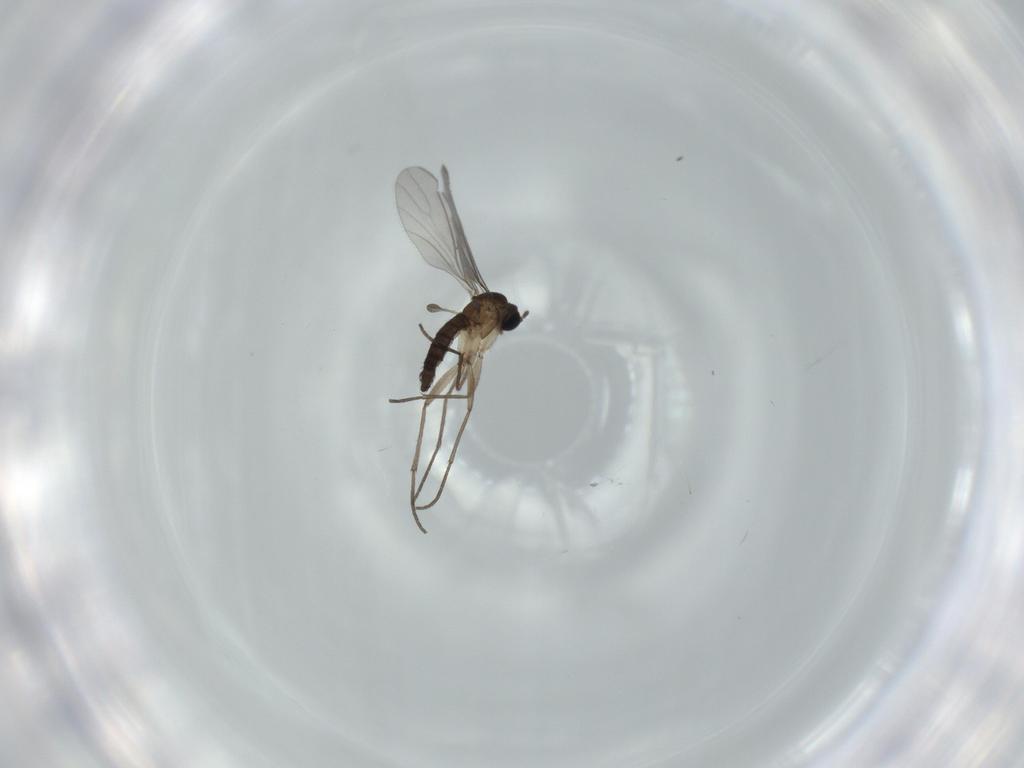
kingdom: Animalia
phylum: Arthropoda
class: Insecta
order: Diptera
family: Sciaridae
